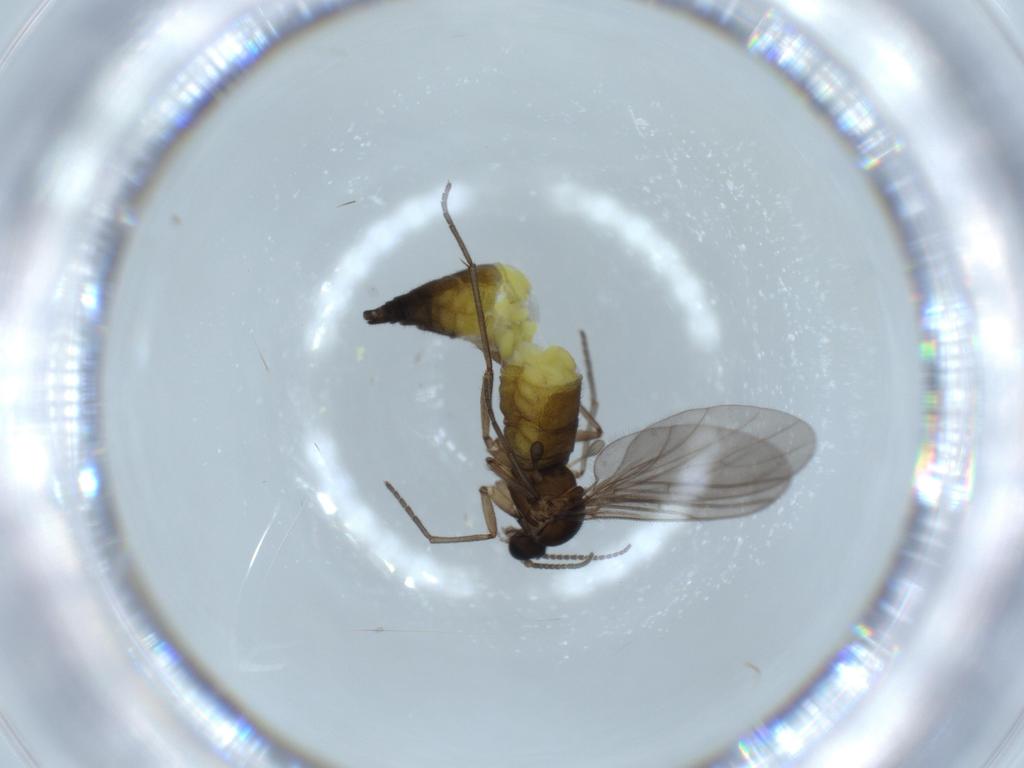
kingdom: Animalia
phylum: Arthropoda
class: Insecta
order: Diptera
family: Sciaridae
